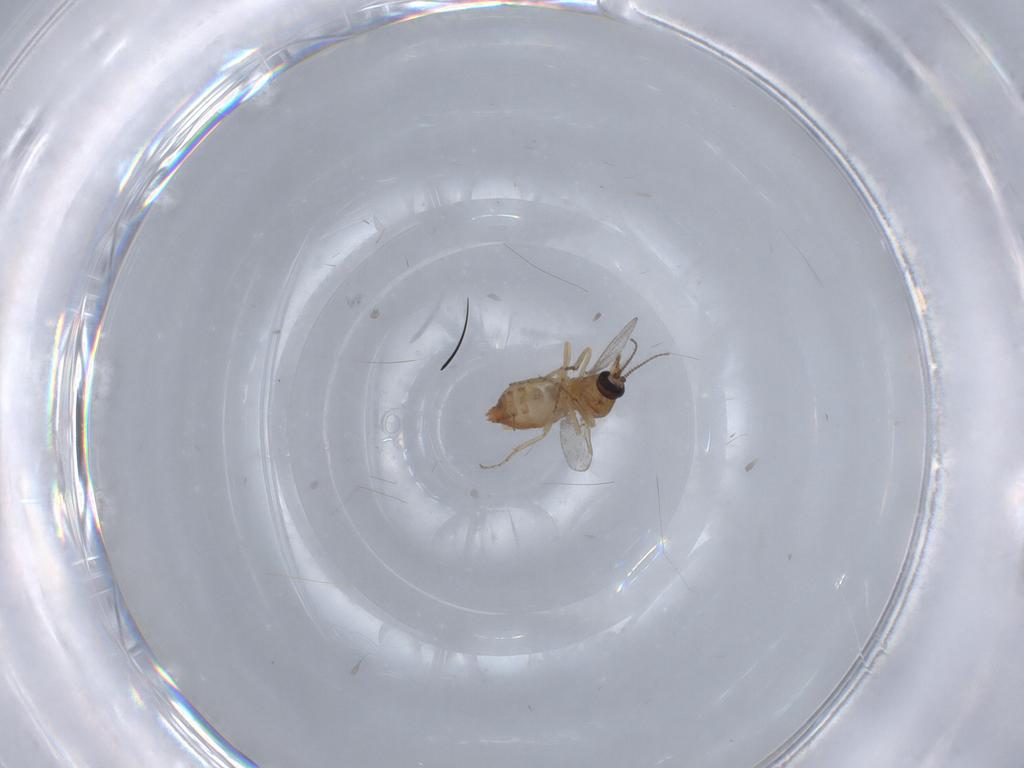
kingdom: Animalia
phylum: Arthropoda
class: Insecta
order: Diptera
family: Ceratopogonidae
